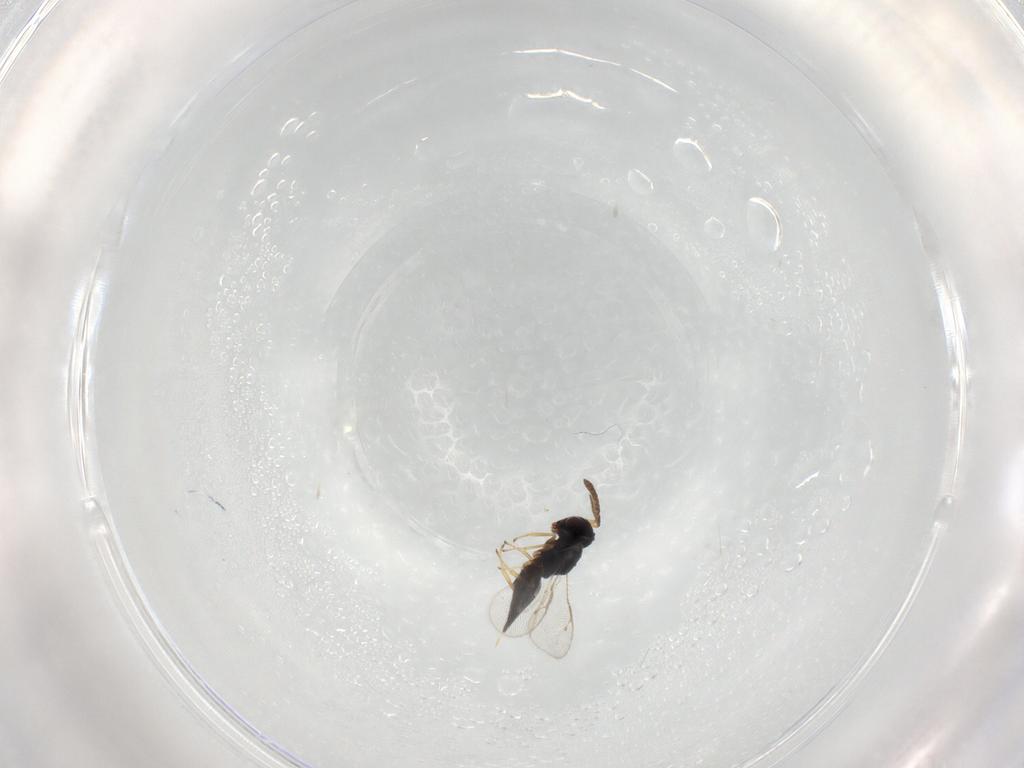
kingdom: Animalia
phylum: Arthropoda
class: Insecta
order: Hymenoptera
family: Pteromalidae
